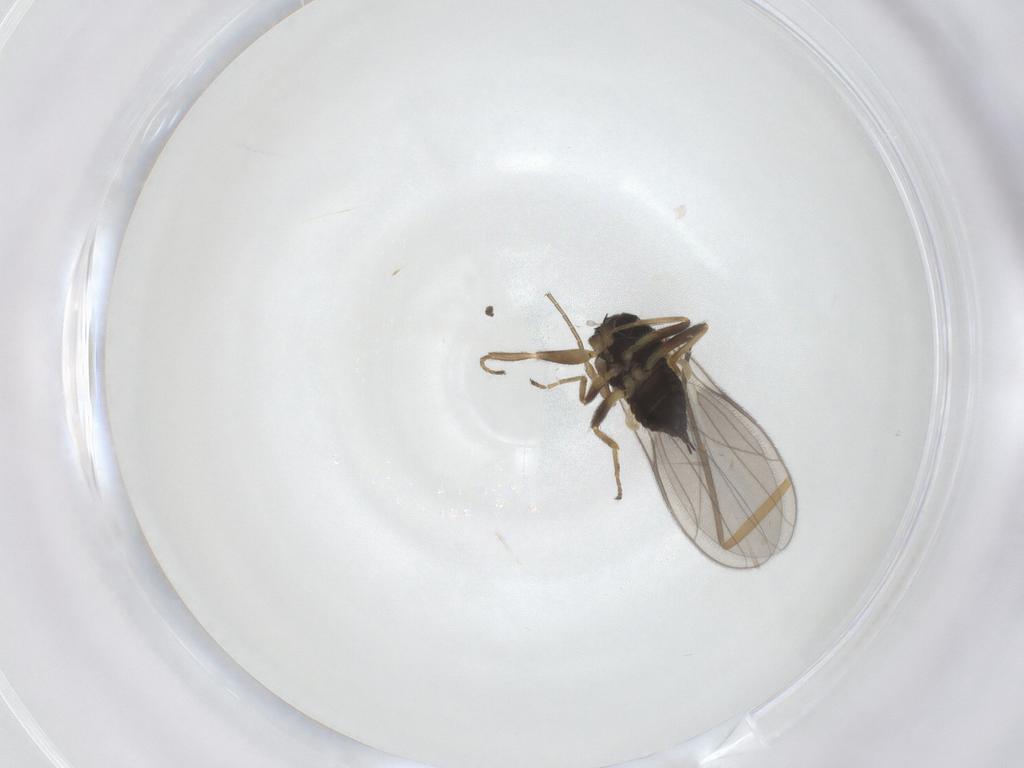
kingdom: Animalia
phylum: Arthropoda
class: Insecta
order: Diptera
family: Hybotidae
